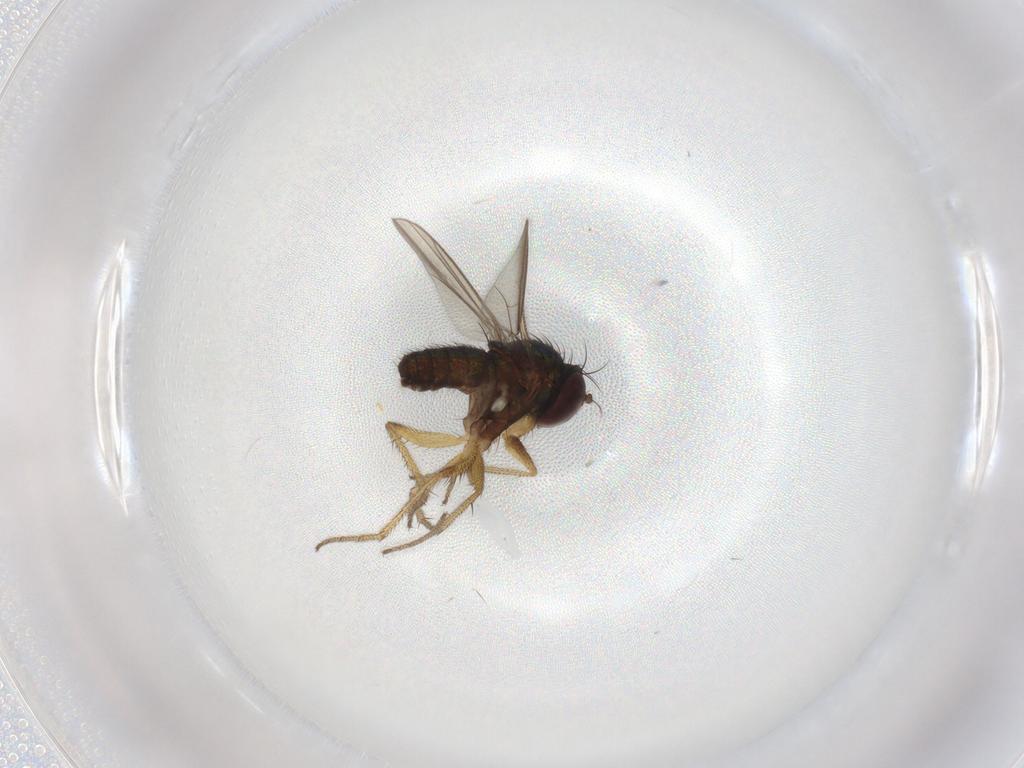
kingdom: Animalia
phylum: Arthropoda
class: Insecta
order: Diptera
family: Dolichopodidae
